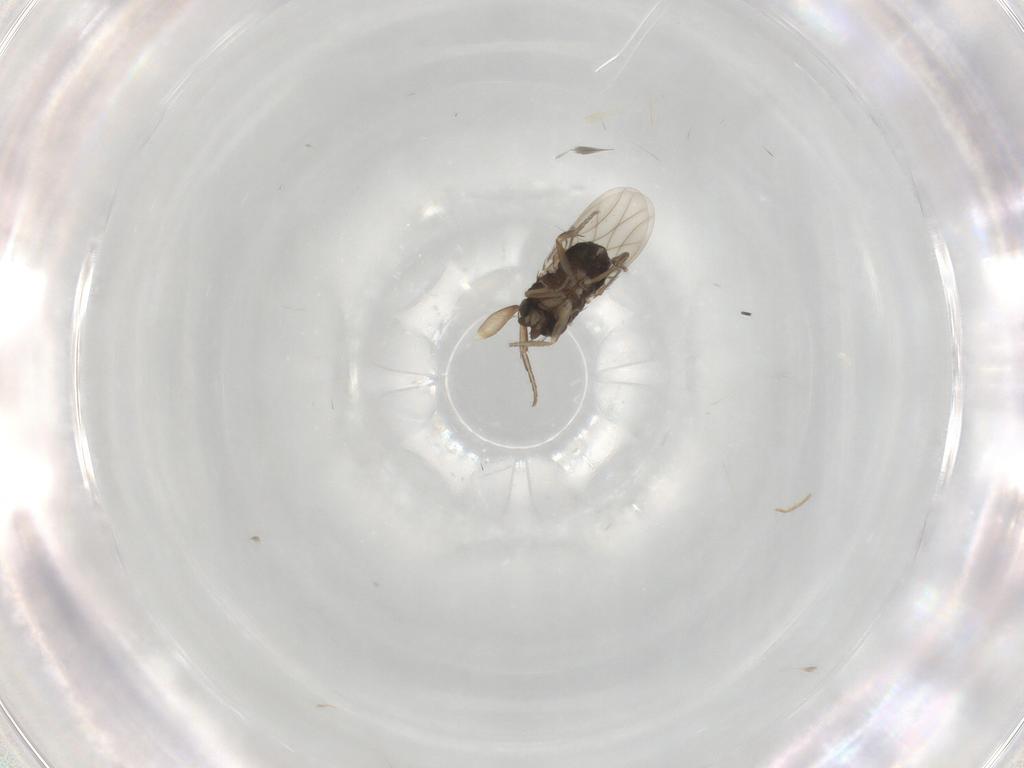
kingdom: Animalia
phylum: Arthropoda
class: Insecta
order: Diptera
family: Phoridae
